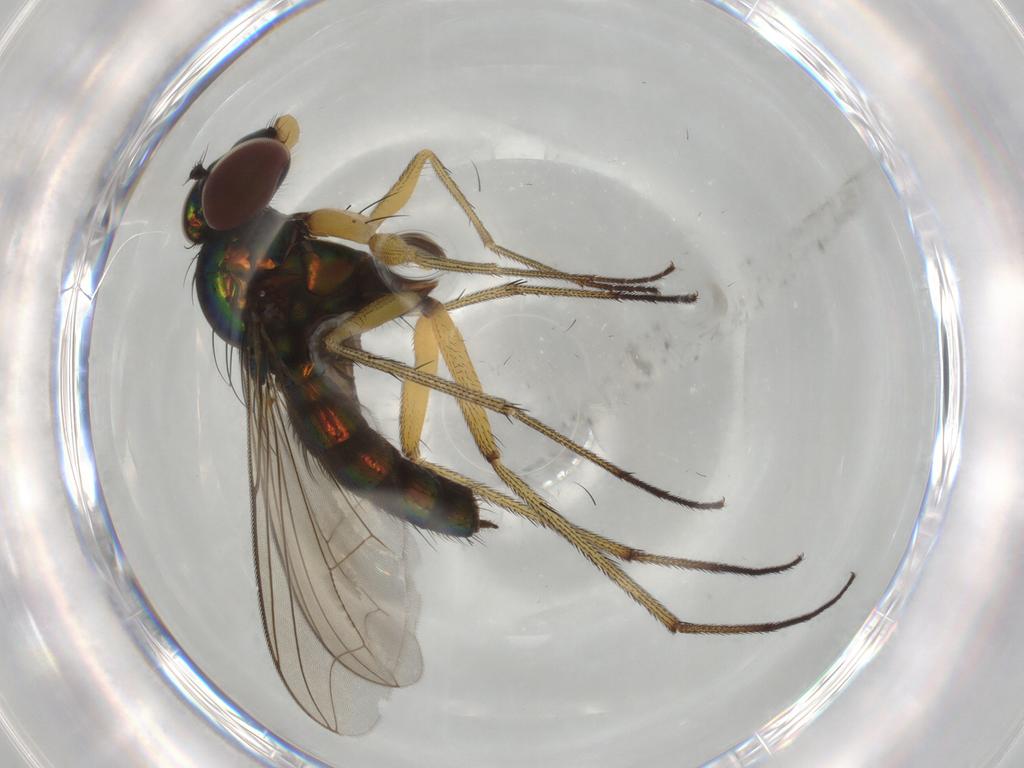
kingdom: Animalia
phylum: Arthropoda
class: Insecta
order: Diptera
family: Dolichopodidae
